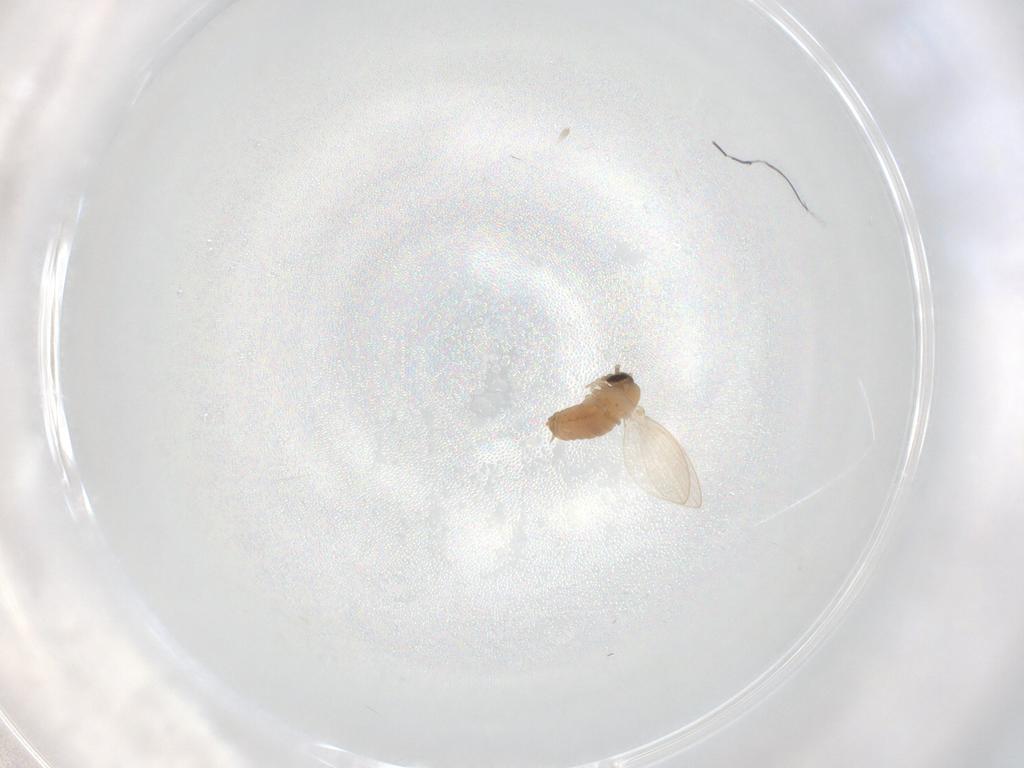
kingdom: Animalia
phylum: Arthropoda
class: Insecta
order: Diptera
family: Psychodidae
